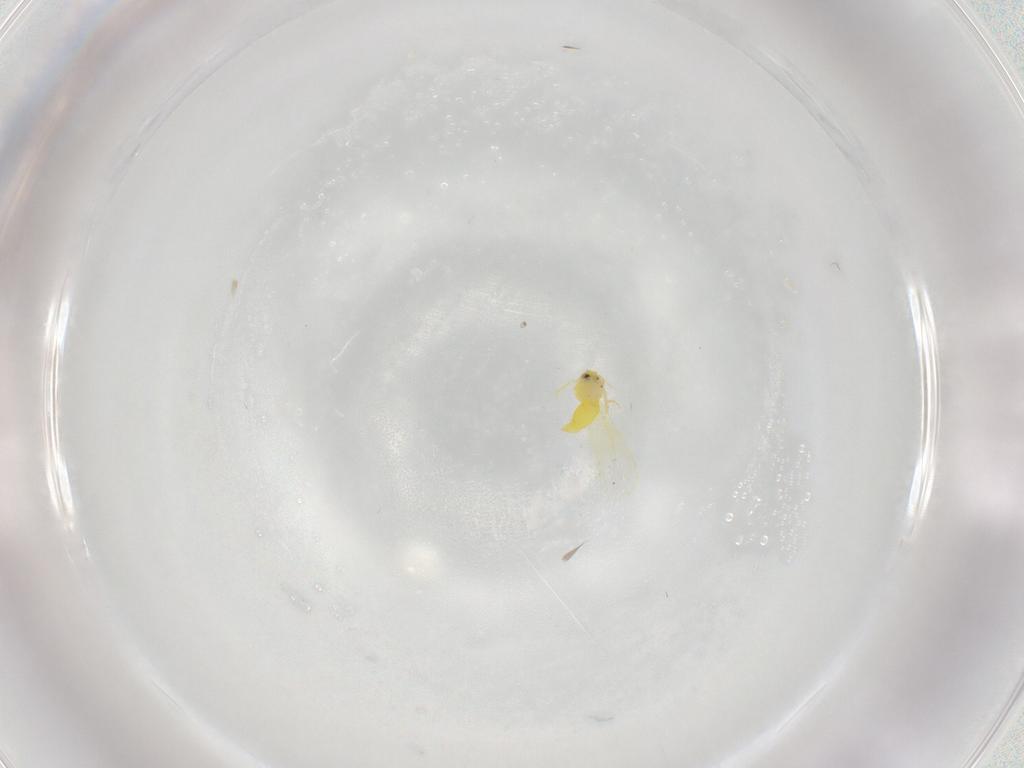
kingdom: Animalia
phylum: Arthropoda
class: Insecta
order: Hemiptera
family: Aleyrodidae
